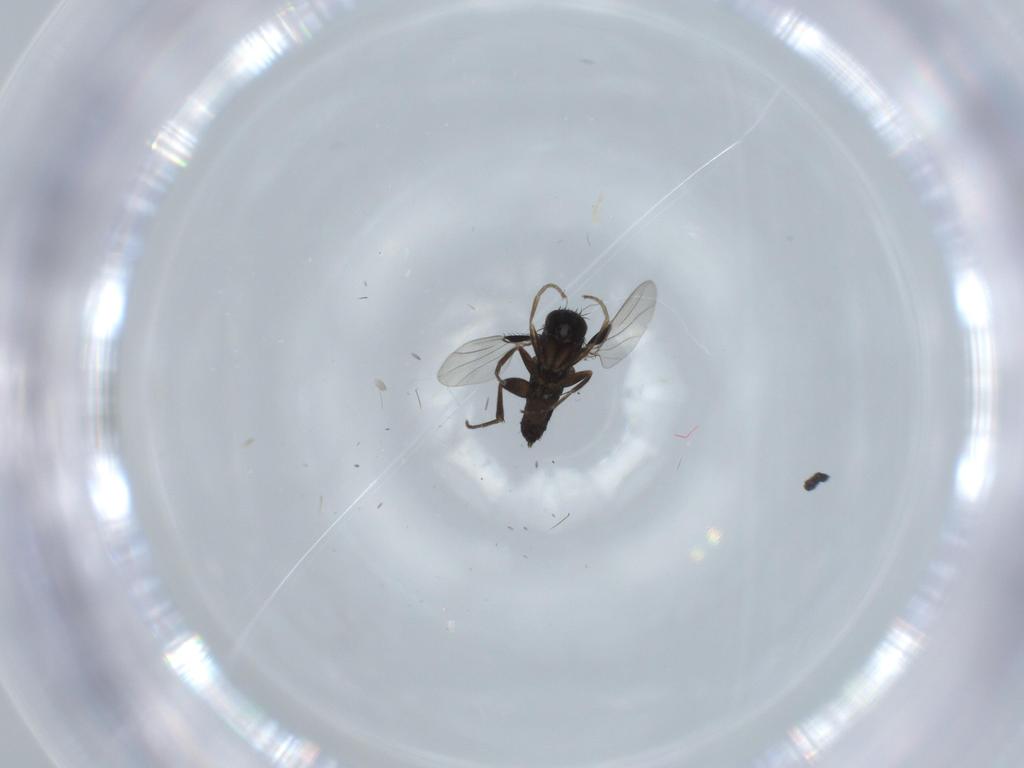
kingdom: Animalia
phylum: Arthropoda
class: Insecta
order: Diptera
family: Phoridae
